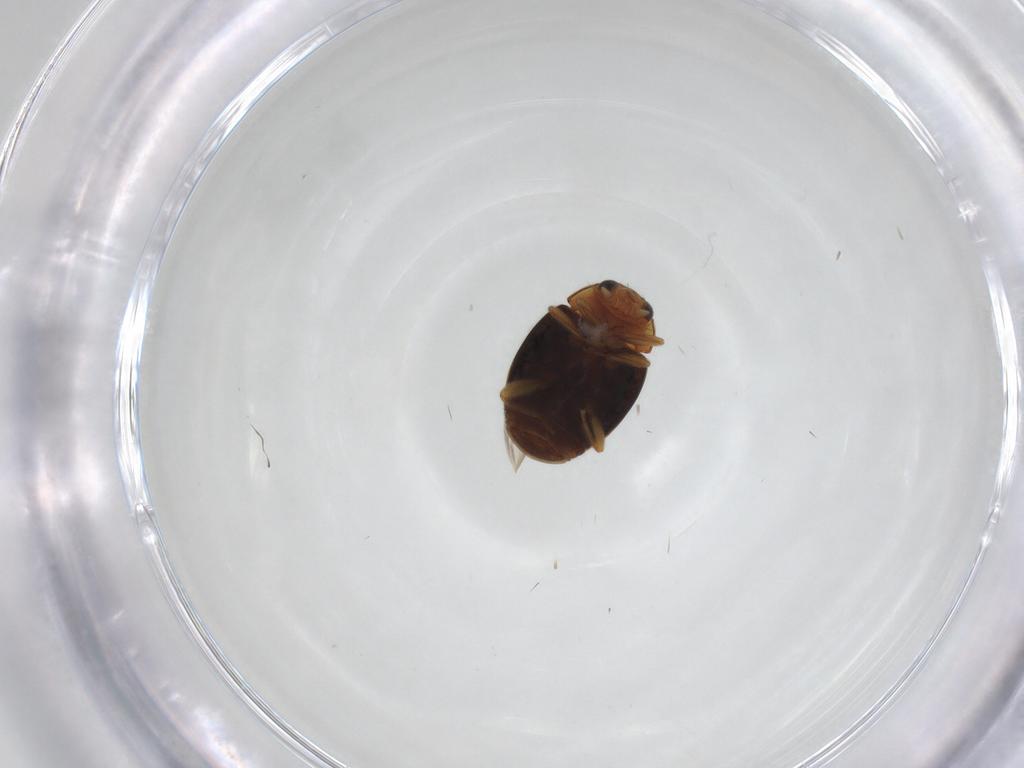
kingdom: Animalia
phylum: Arthropoda
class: Insecta
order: Coleoptera
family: Coccinellidae
